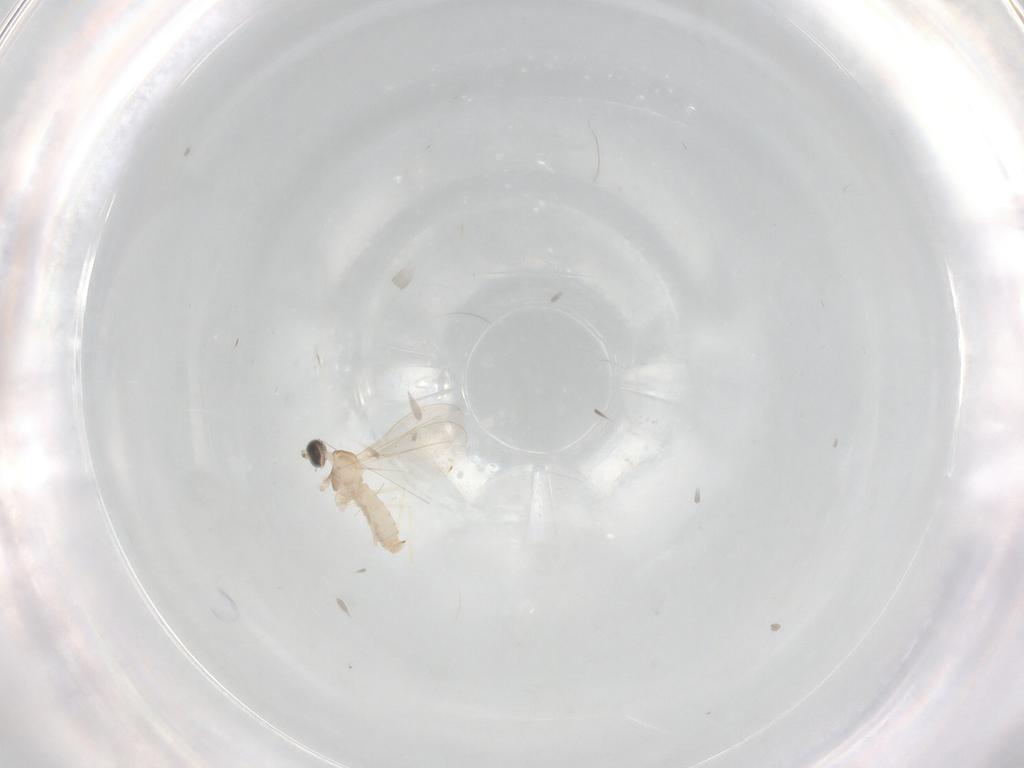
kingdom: Animalia
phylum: Arthropoda
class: Insecta
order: Diptera
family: Cecidomyiidae
